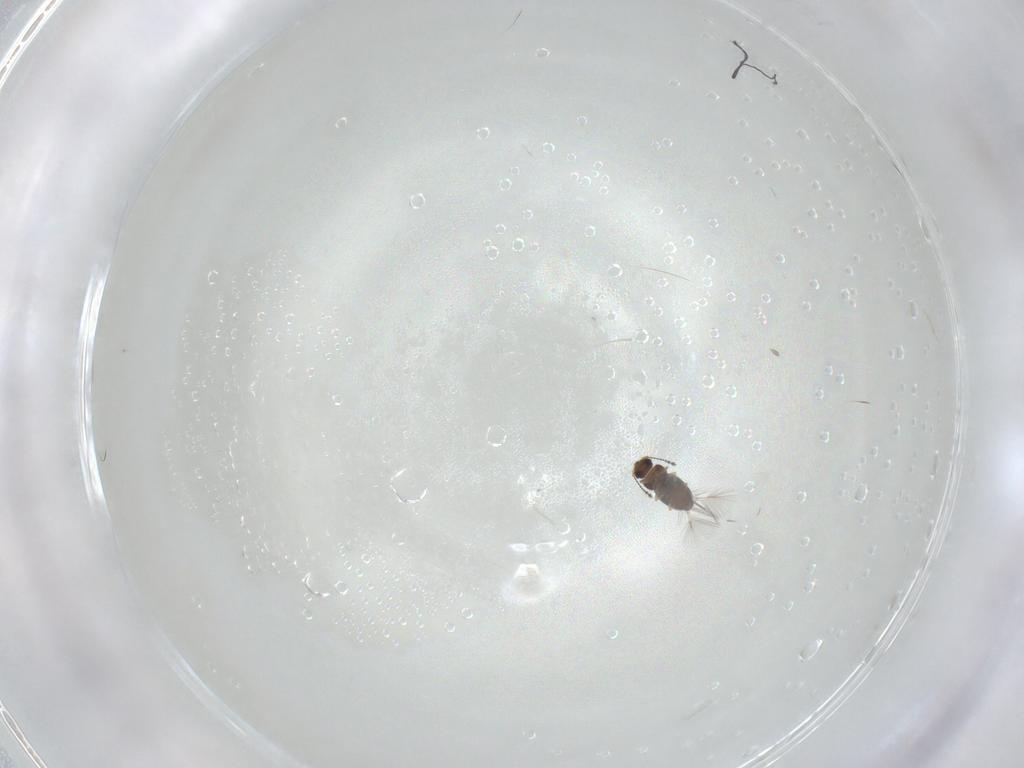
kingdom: Animalia
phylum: Arthropoda
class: Insecta
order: Coleoptera
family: Ptiliidae
